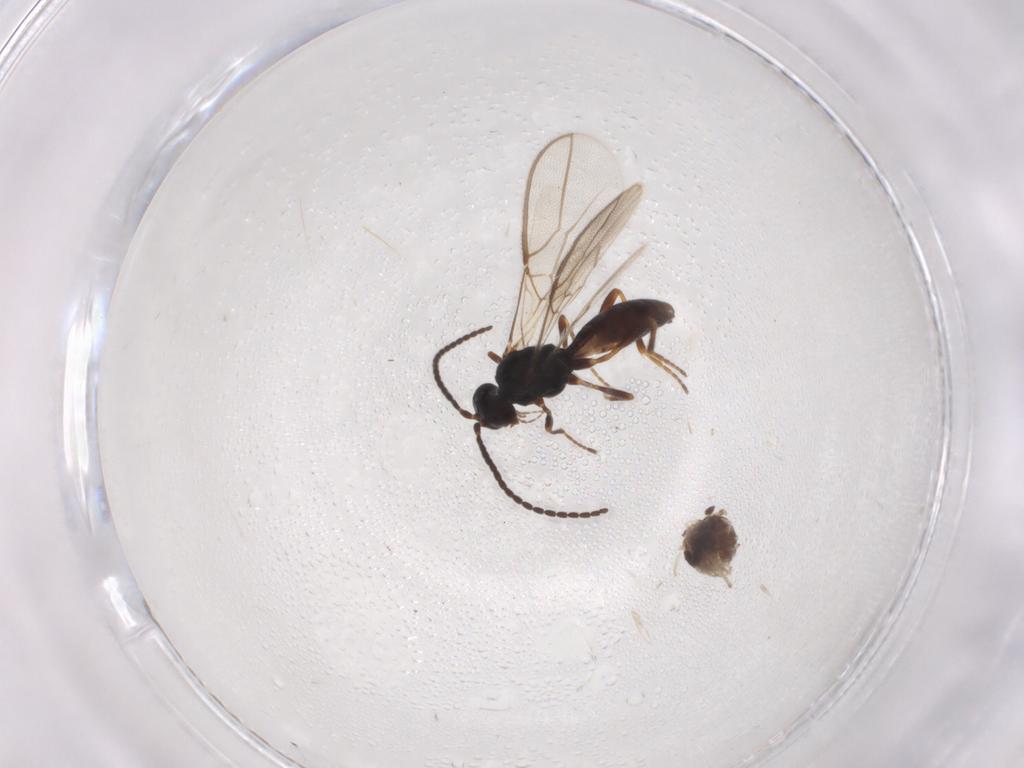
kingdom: Animalia
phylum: Arthropoda
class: Insecta
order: Hymenoptera
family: Braconidae
